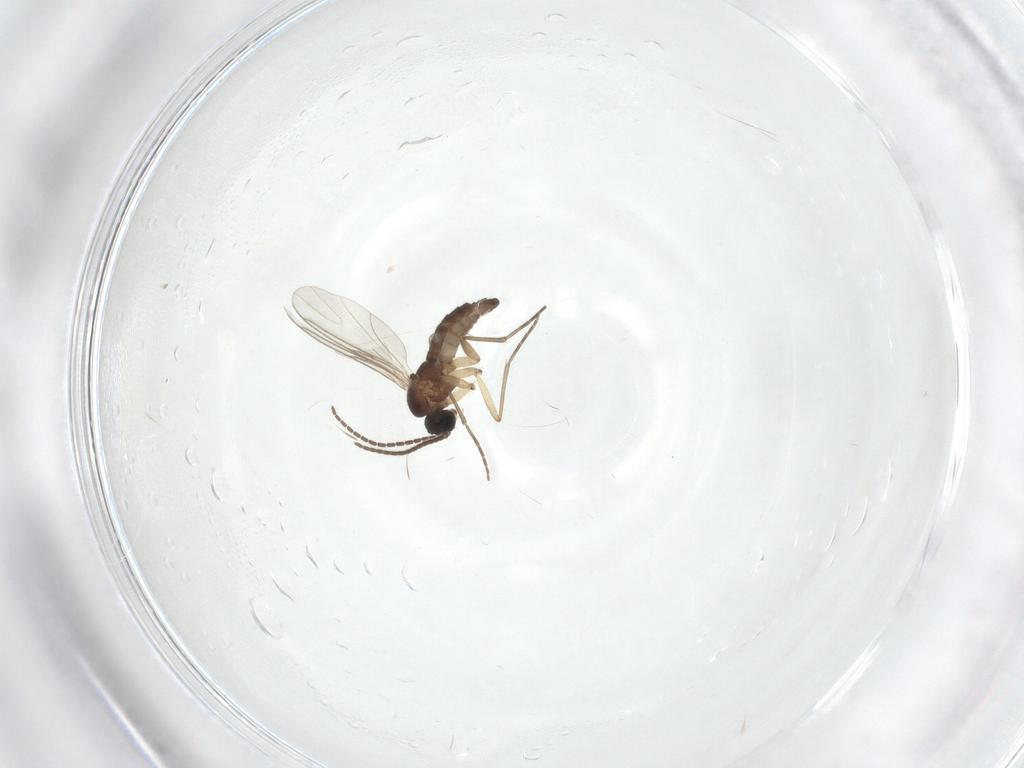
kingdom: Animalia
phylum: Arthropoda
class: Insecta
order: Diptera
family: Sciaridae
